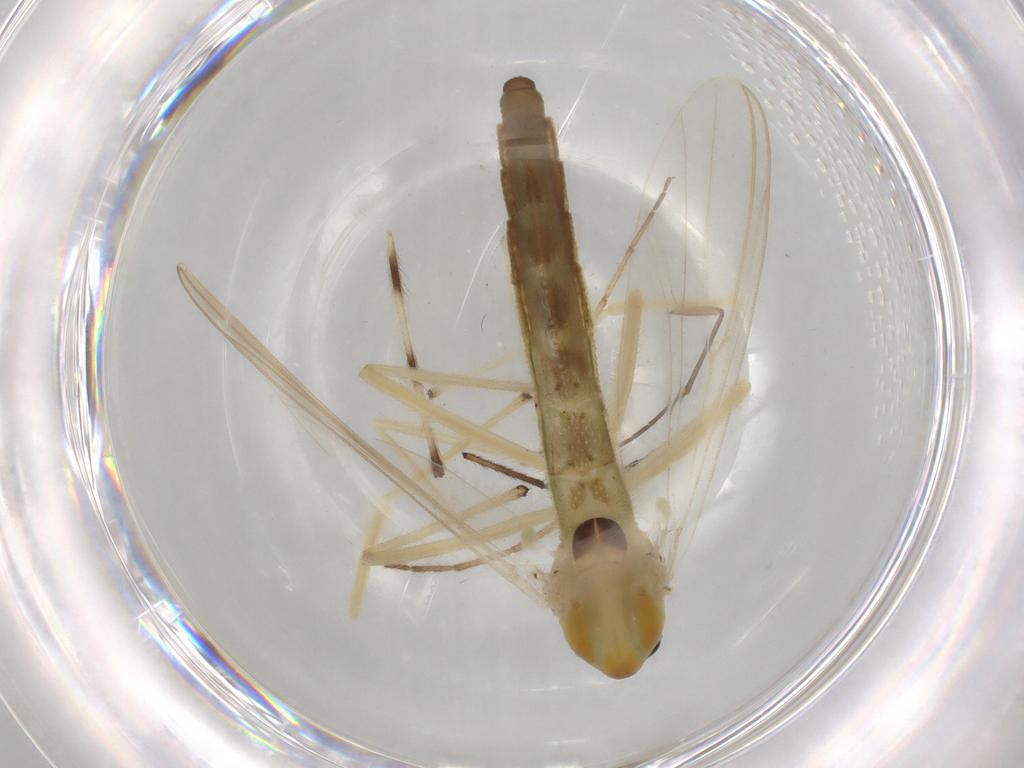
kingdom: Animalia
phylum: Arthropoda
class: Insecta
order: Diptera
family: Chironomidae
